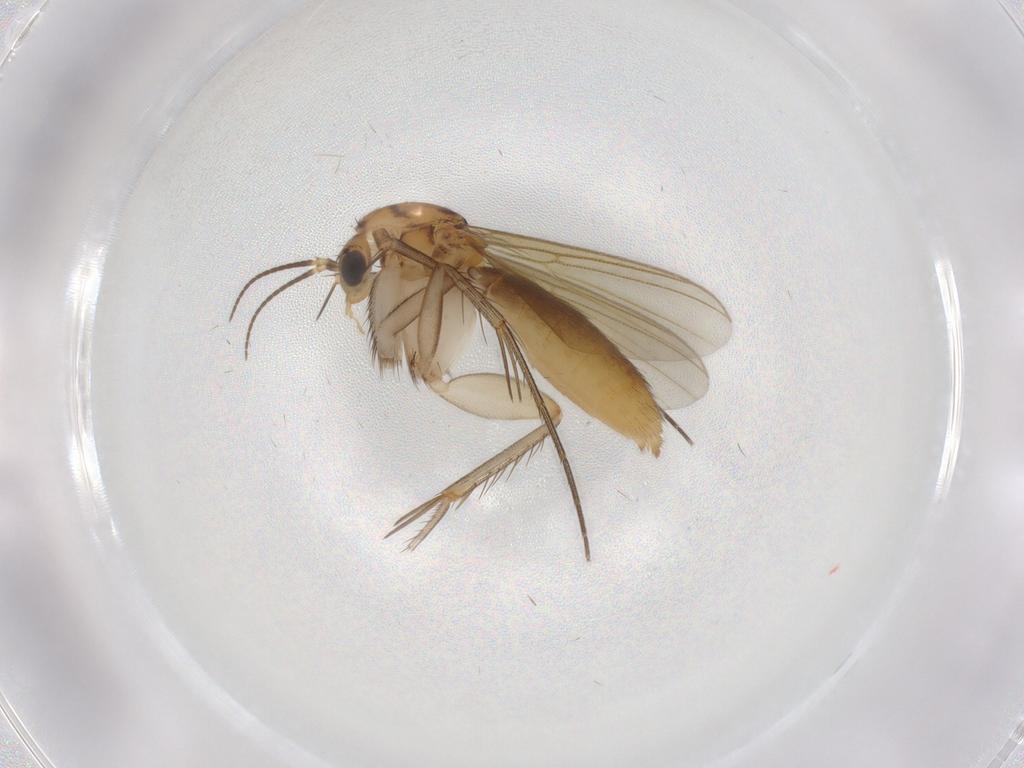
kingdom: Animalia
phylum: Arthropoda
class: Insecta
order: Diptera
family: Mycetophilidae
